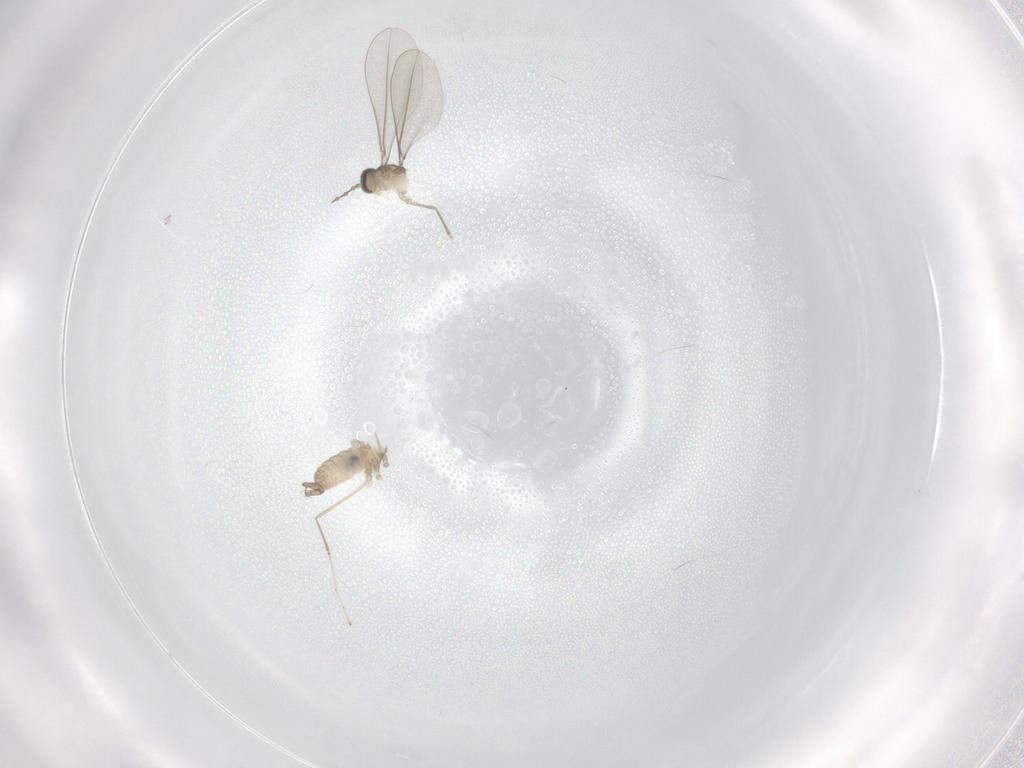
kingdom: Animalia
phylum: Arthropoda
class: Insecta
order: Diptera
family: Cecidomyiidae
